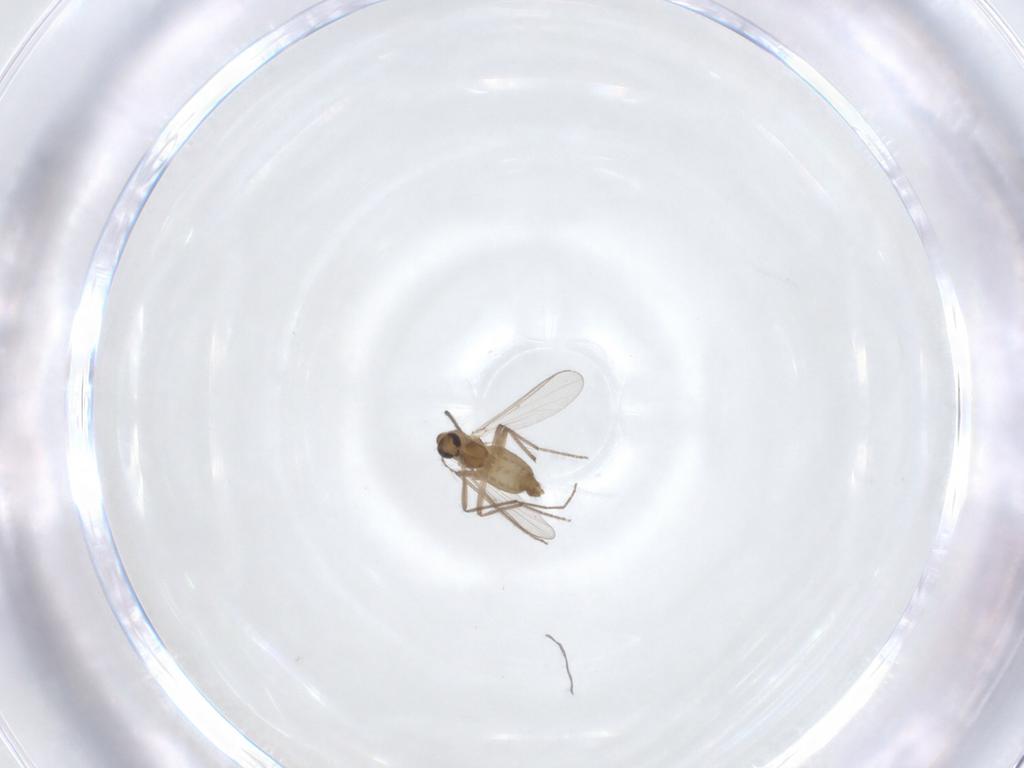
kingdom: Animalia
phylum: Arthropoda
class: Insecta
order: Diptera
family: Chironomidae
